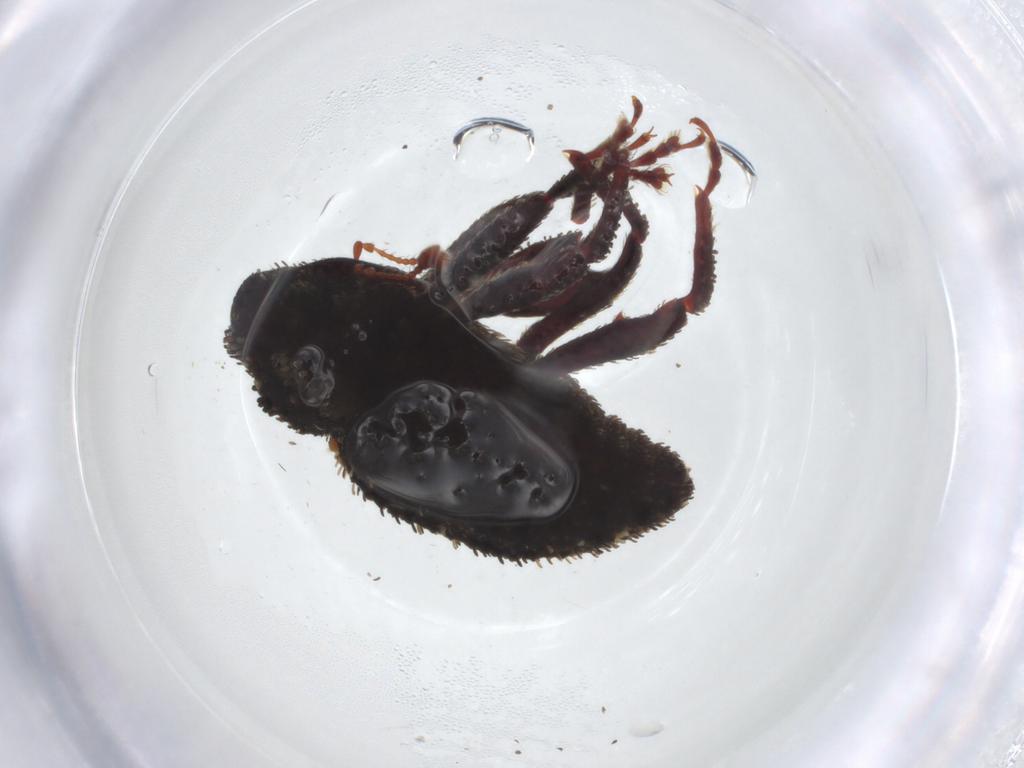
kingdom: Animalia
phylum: Arthropoda
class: Insecta
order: Coleoptera
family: Curculionidae
